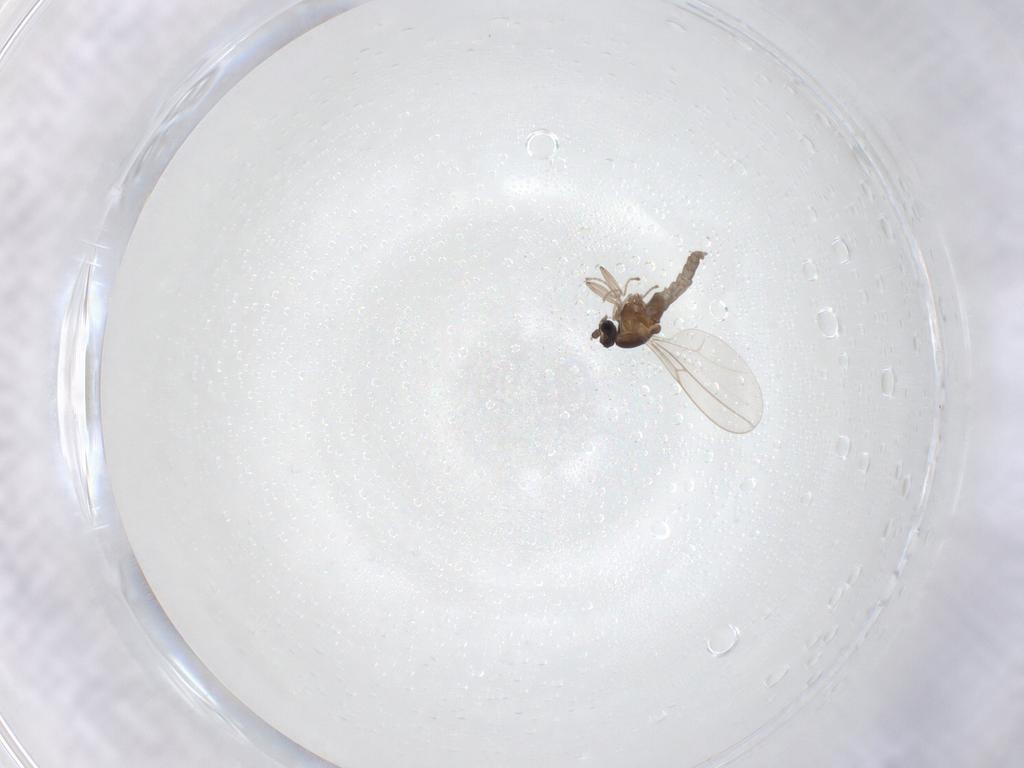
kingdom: Animalia
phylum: Arthropoda
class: Insecta
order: Diptera
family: Cecidomyiidae
